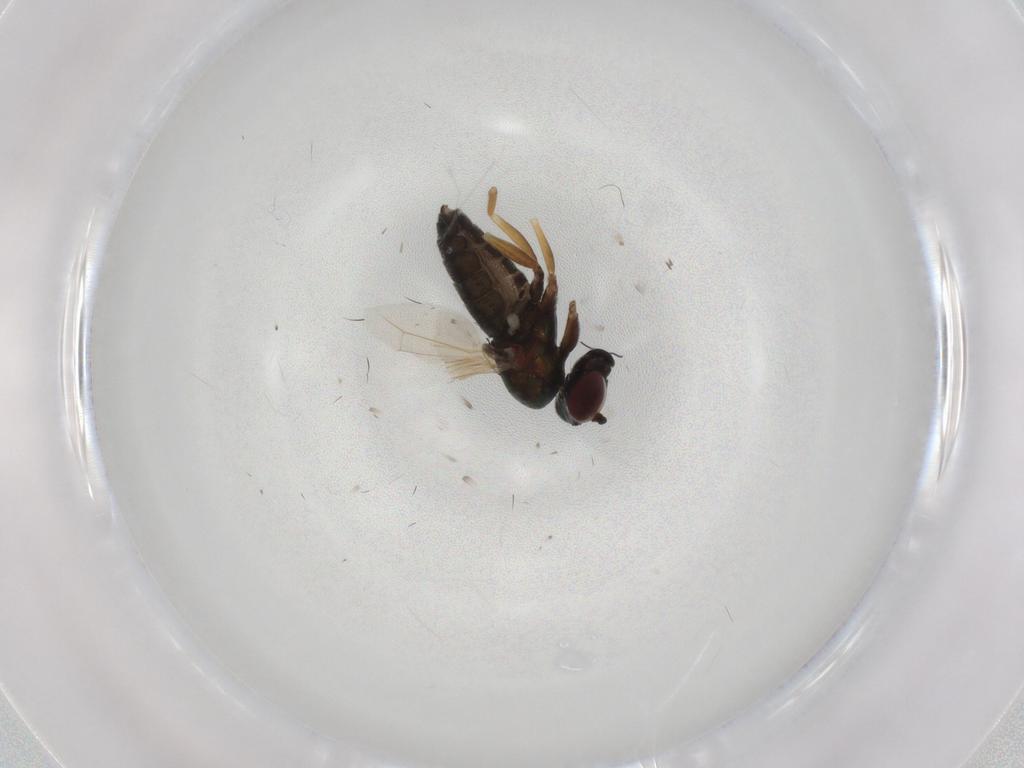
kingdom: Animalia
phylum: Arthropoda
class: Insecta
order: Diptera
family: Dolichopodidae
